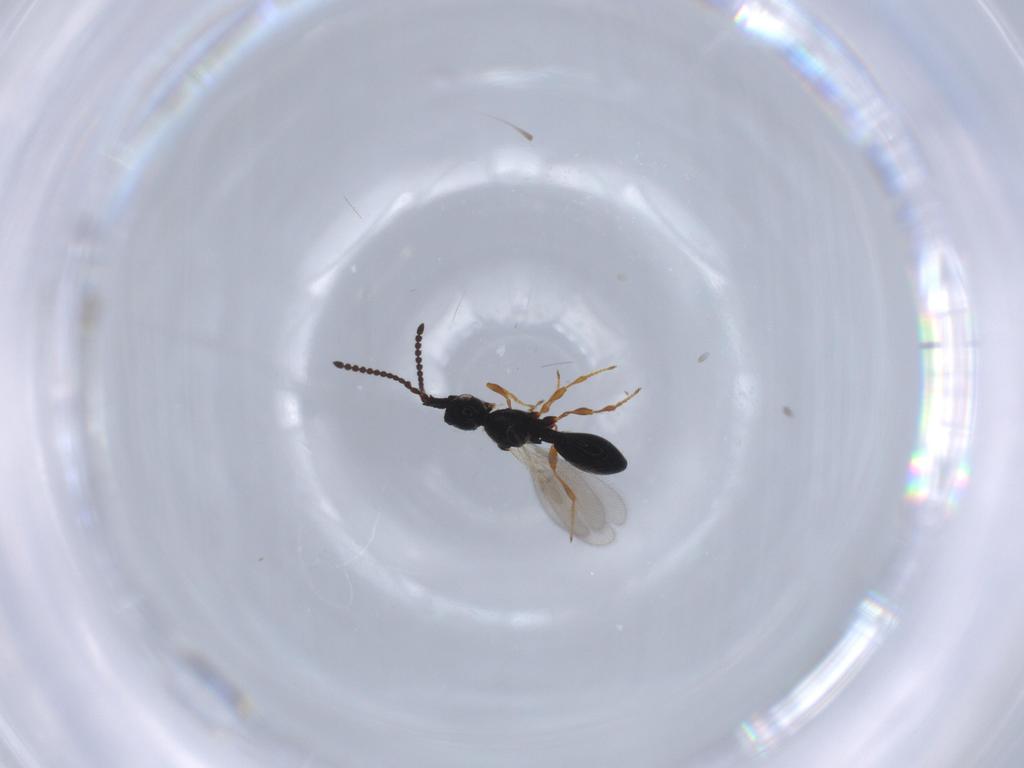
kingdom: Animalia
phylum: Arthropoda
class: Insecta
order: Hymenoptera
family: Diapriidae
